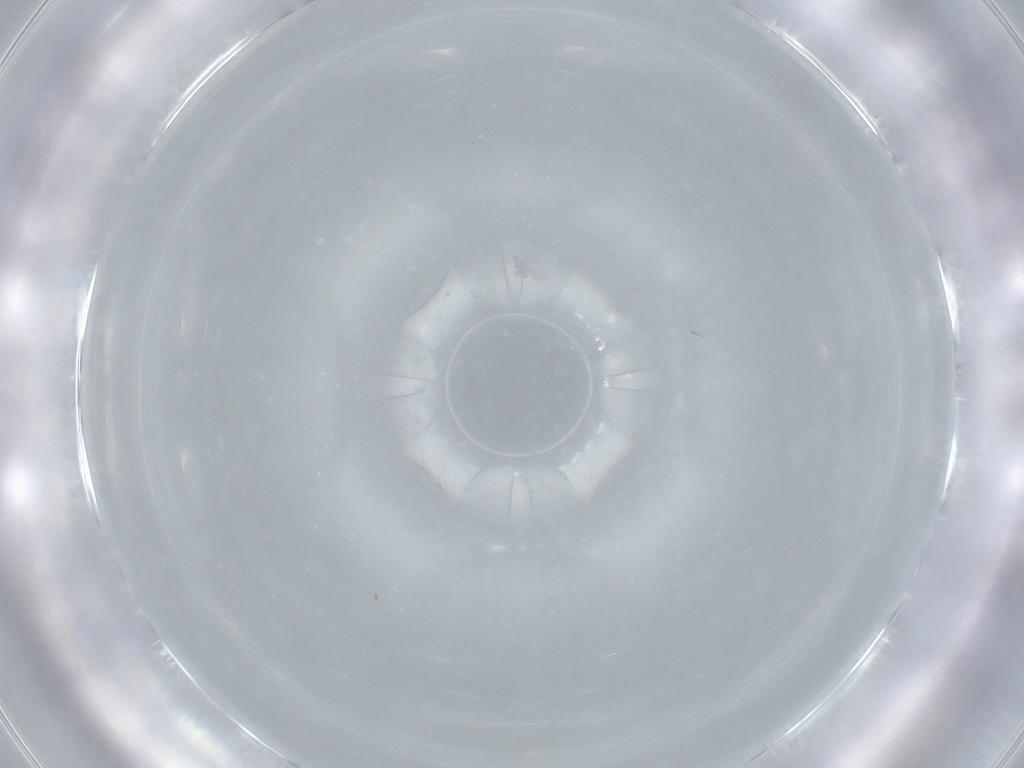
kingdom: Animalia
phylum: Arthropoda
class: Insecta
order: Diptera
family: Cecidomyiidae
